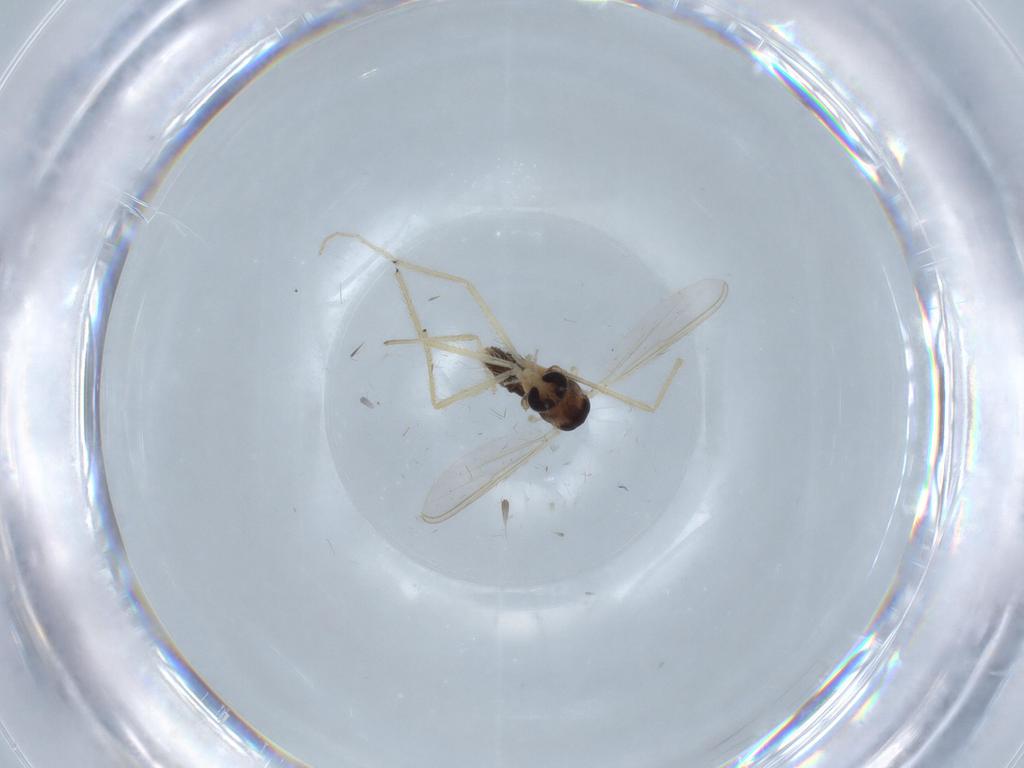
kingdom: Animalia
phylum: Arthropoda
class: Insecta
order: Diptera
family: Chironomidae
